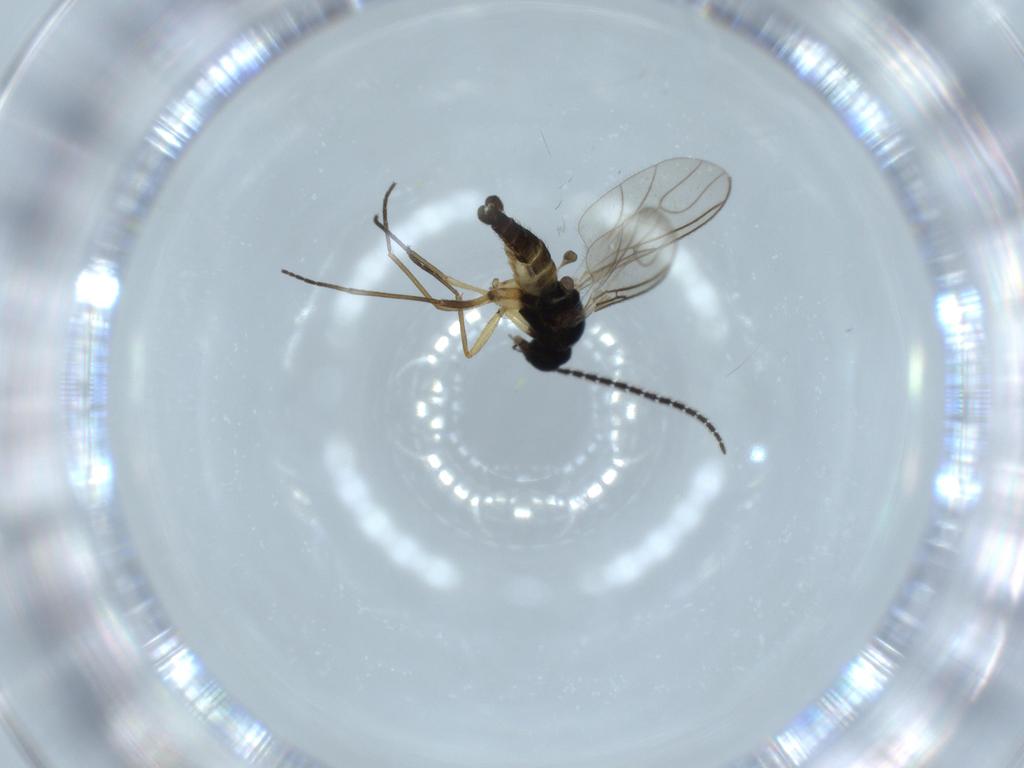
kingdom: Animalia
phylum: Arthropoda
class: Insecta
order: Diptera
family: Sciaridae
